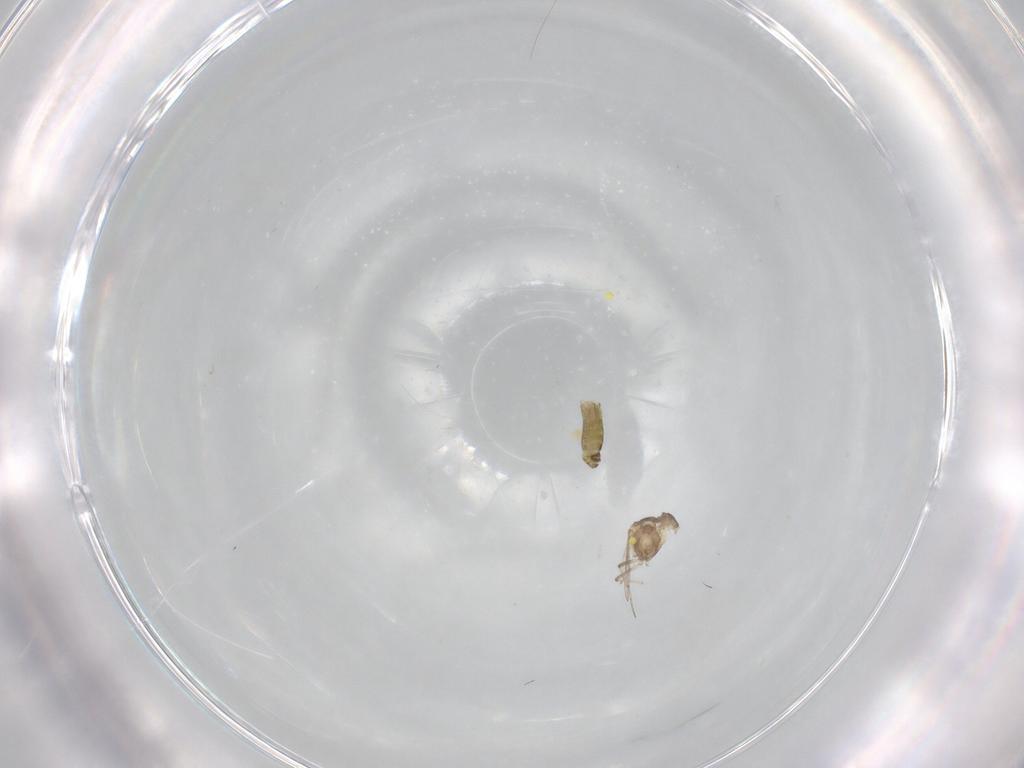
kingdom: Animalia
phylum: Arthropoda
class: Insecta
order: Diptera
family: Ceratopogonidae
